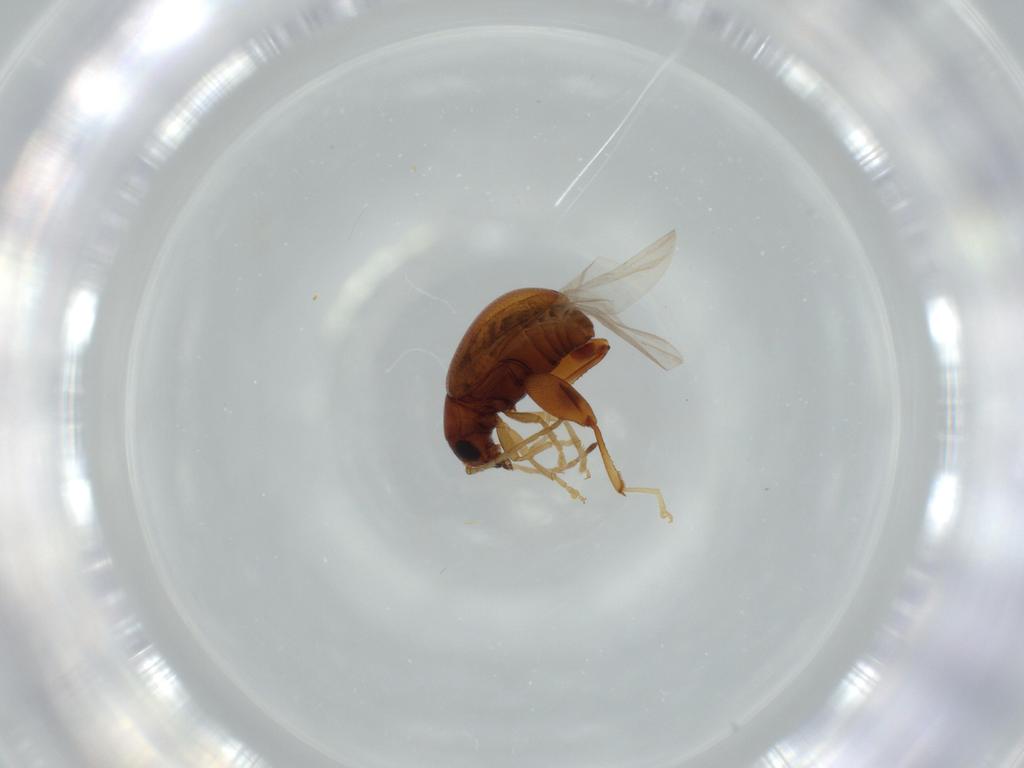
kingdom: Animalia
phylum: Arthropoda
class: Insecta
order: Coleoptera
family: Chrysomelidae
